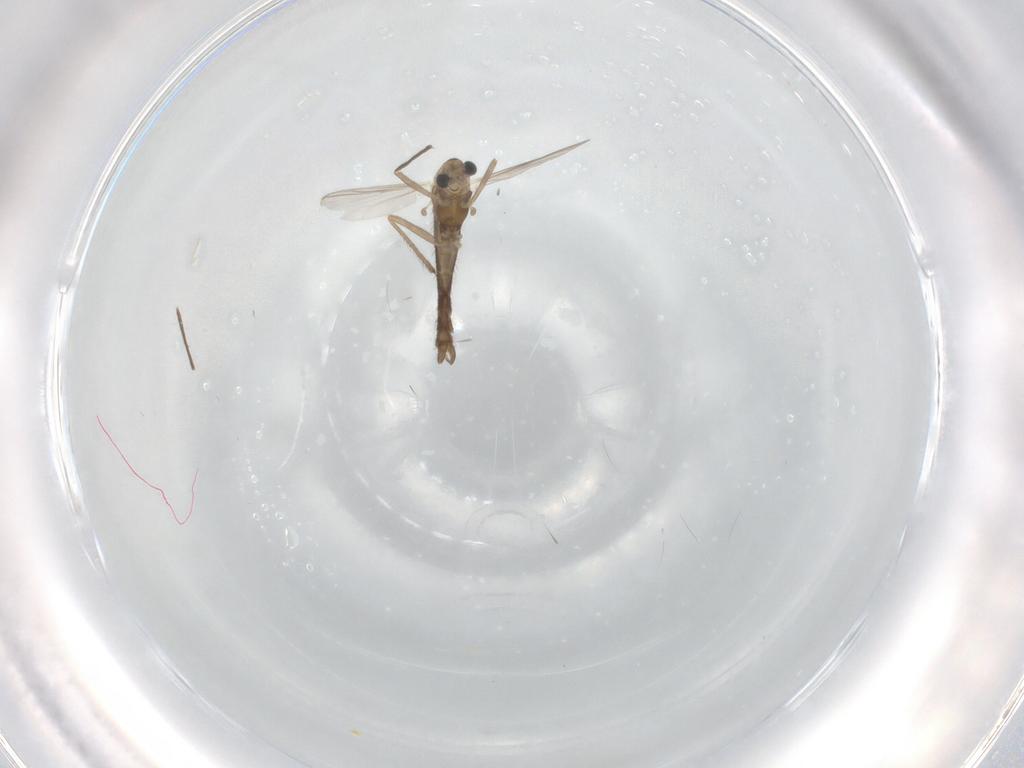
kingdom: Animalia
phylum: Arthropoda
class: Insecta
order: Diptera
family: Chironomidae
